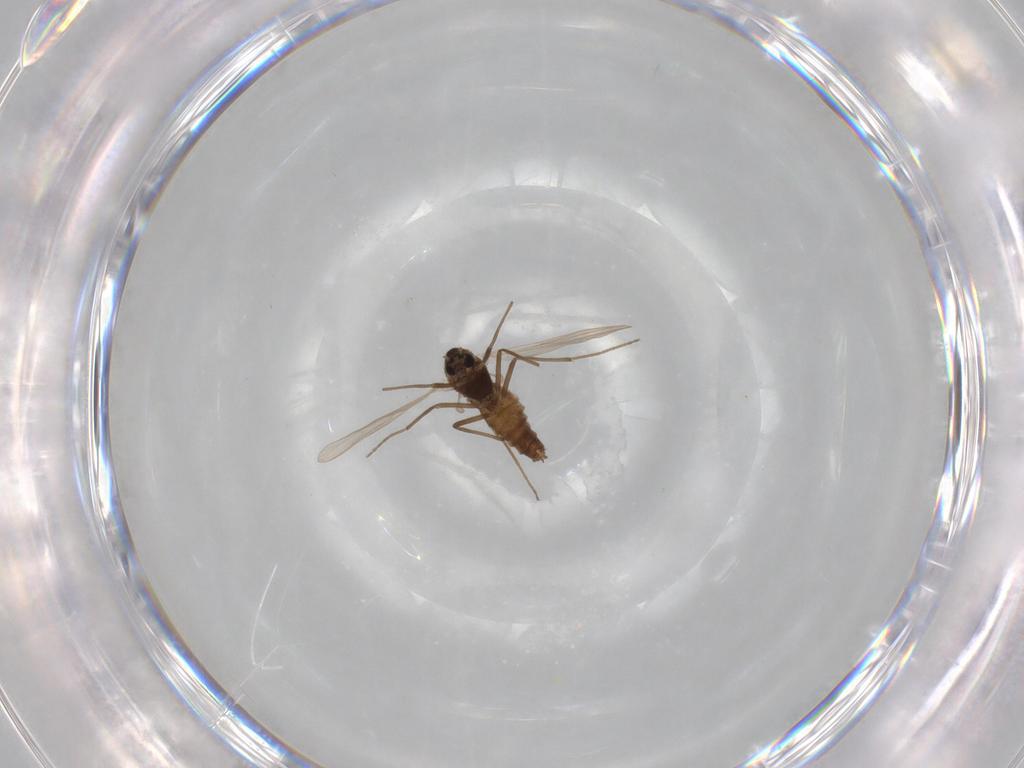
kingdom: Animalia
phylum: Arthropoda
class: Insecta
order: Diptera
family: Chironomidae
